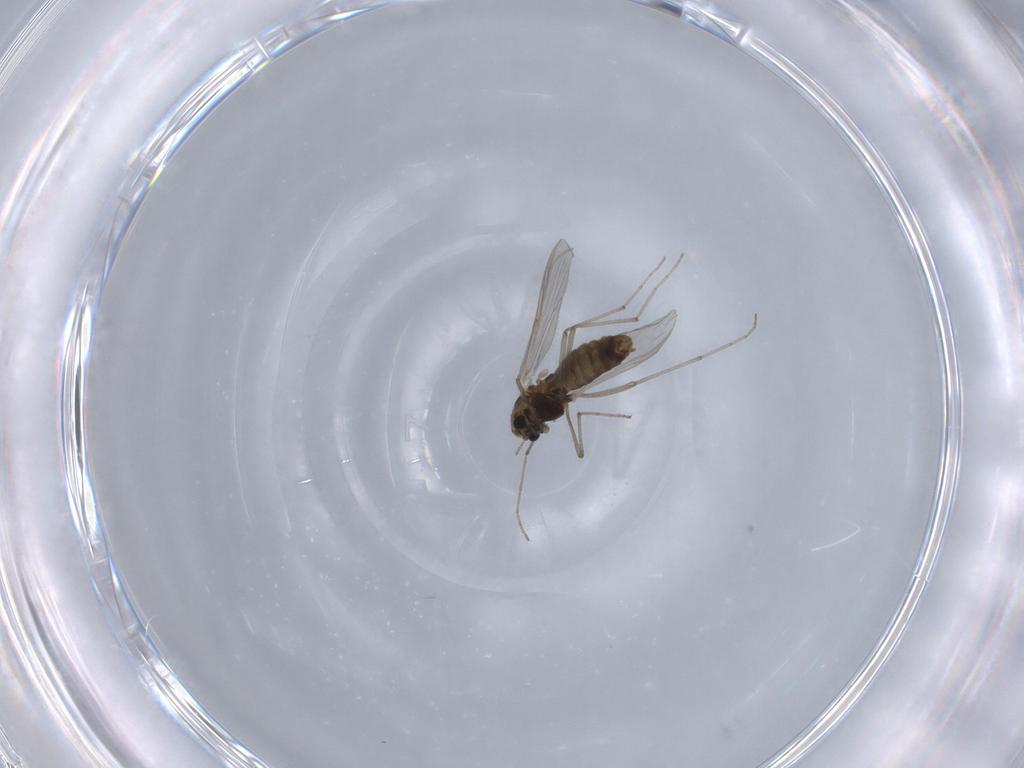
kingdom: Animalia
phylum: Arthropoda
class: Insecta
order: Diptera
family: Chironomidae
